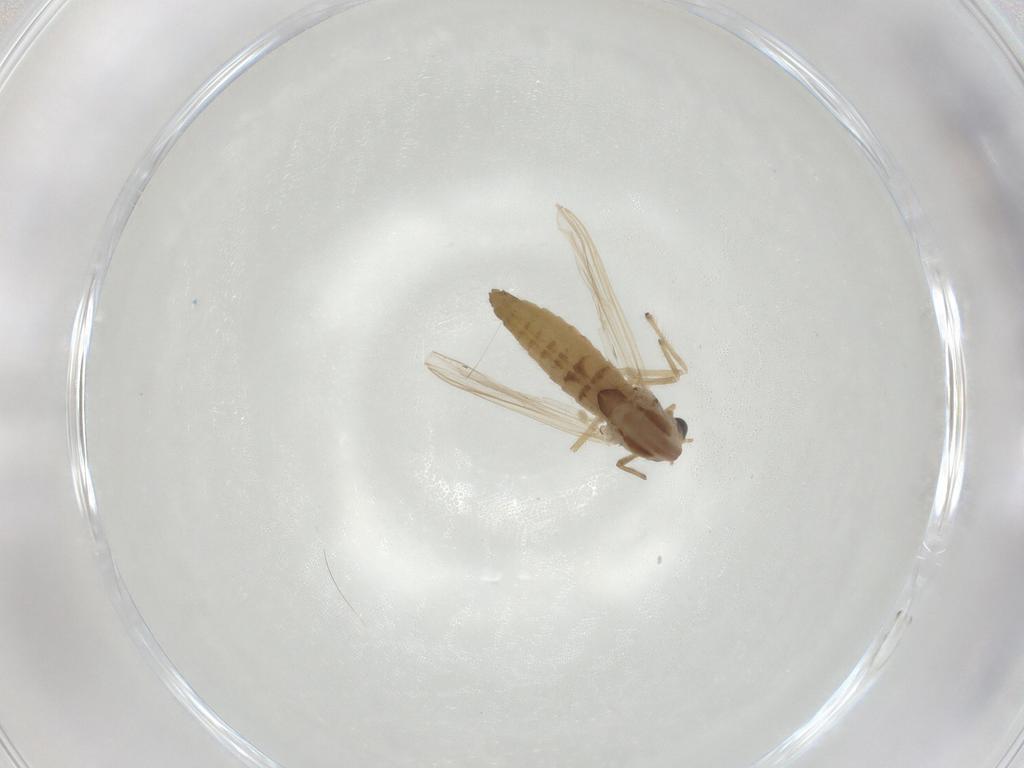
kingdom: Animalia
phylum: Arthropoda
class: Insecta
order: Diptera
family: Chironomidae
